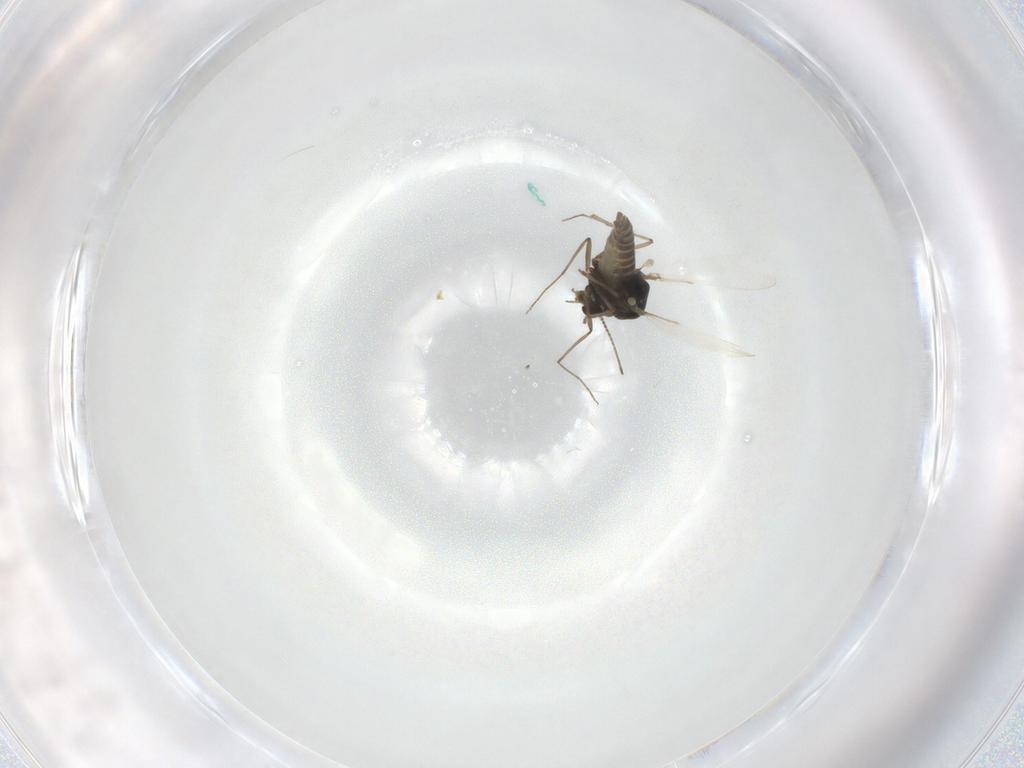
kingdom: Animalia
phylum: Arthropoda
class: Insecta
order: Diptera
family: Chironomidae
